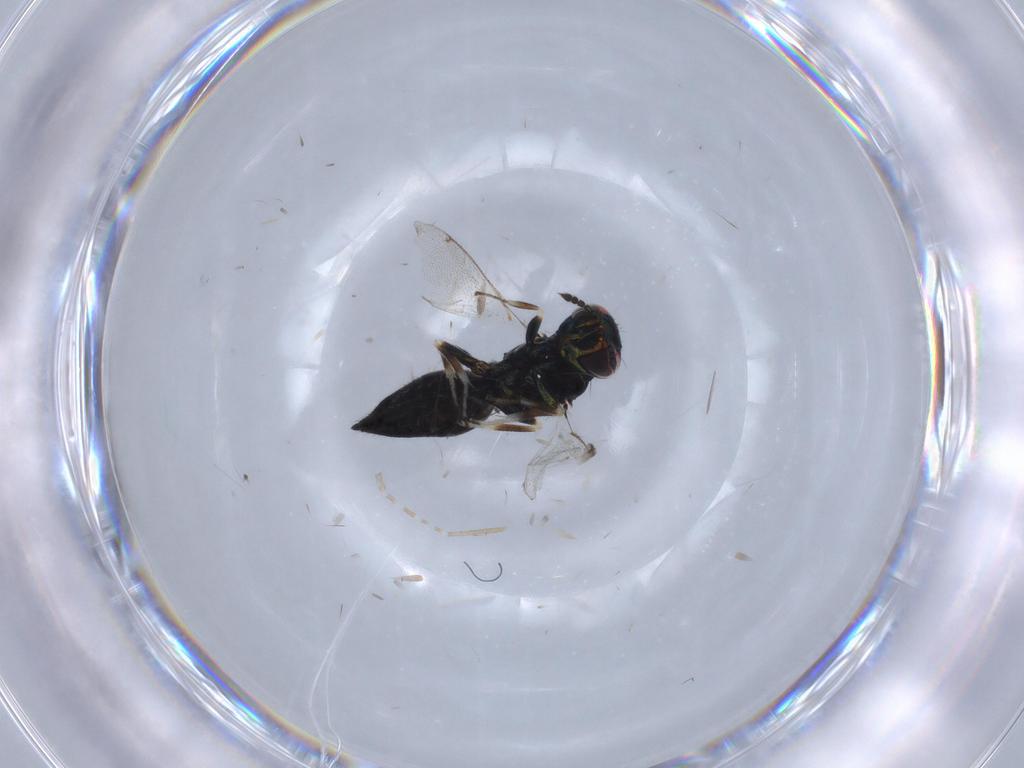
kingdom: Animalia
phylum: Arthropoda
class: Insecta
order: Hymenoptera
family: Eulophidae
